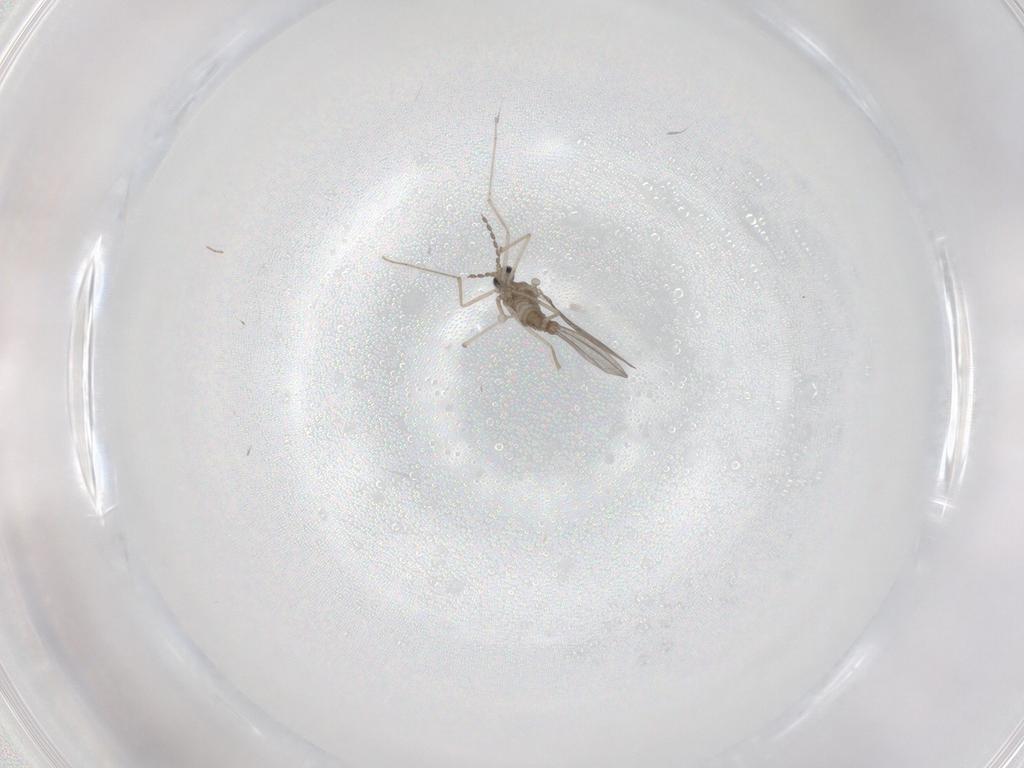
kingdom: Animalia
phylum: Arthropoda
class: Insecta
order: Diptera
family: Cecidomyiidae
